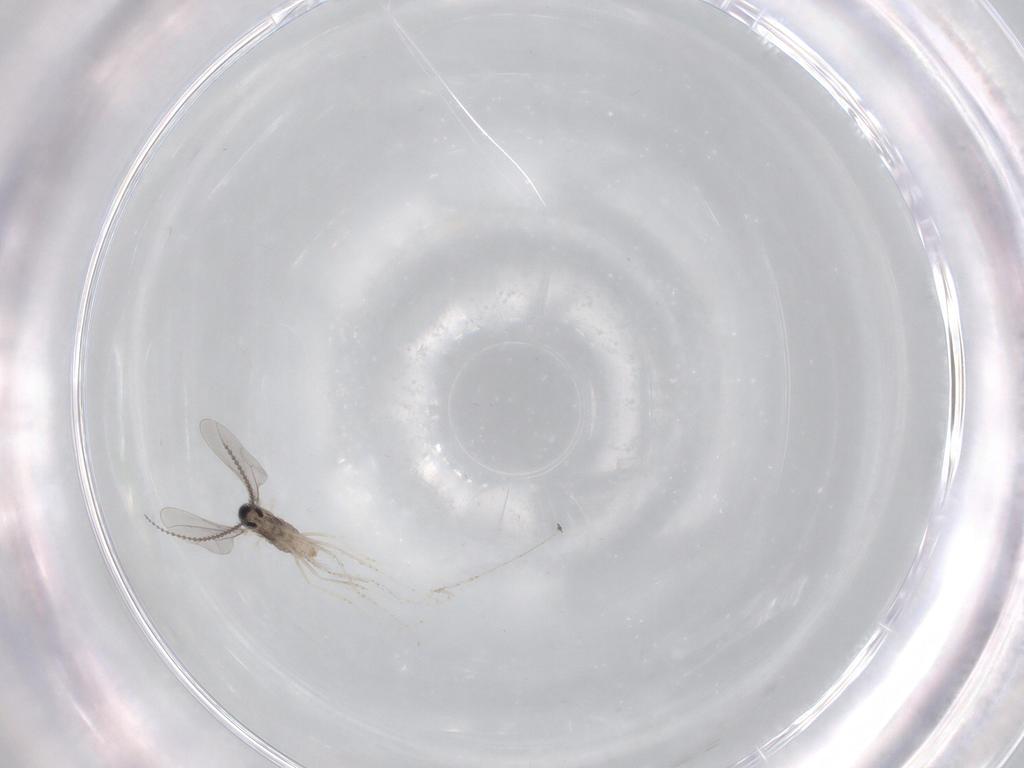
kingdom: Animalia
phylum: Arthropoda
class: Insecta
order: Diptera
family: Cecidomyiidae
